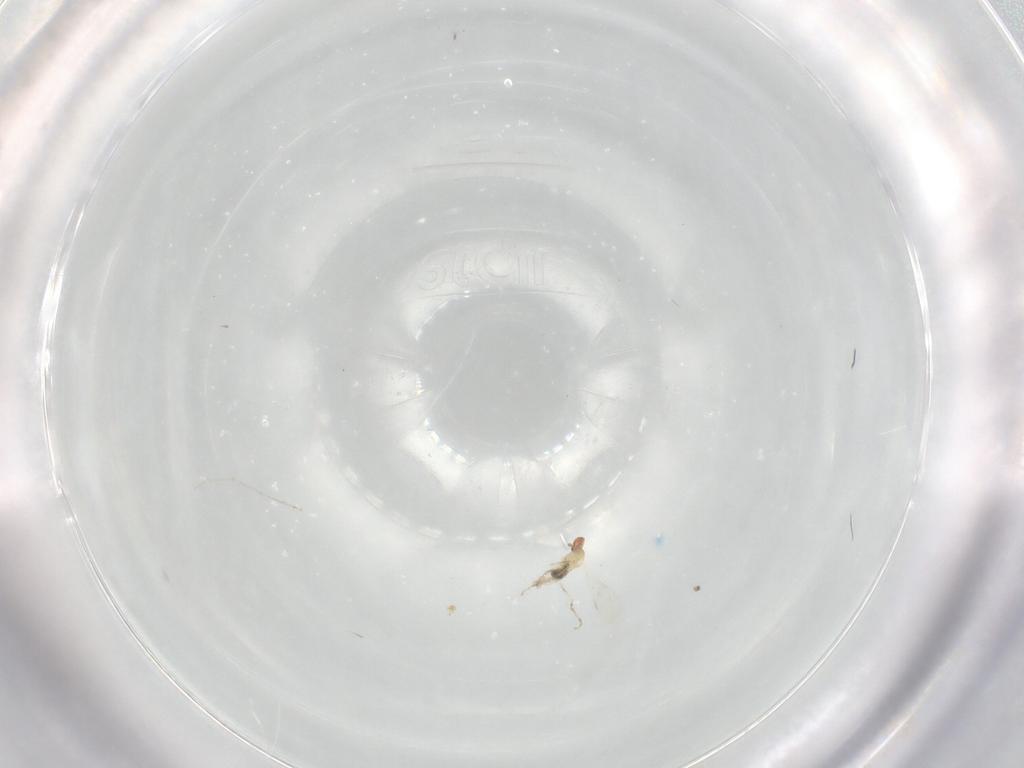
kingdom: Animalia
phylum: Arthropoda
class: Insecta
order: Diptera
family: Cecidomyiidae
